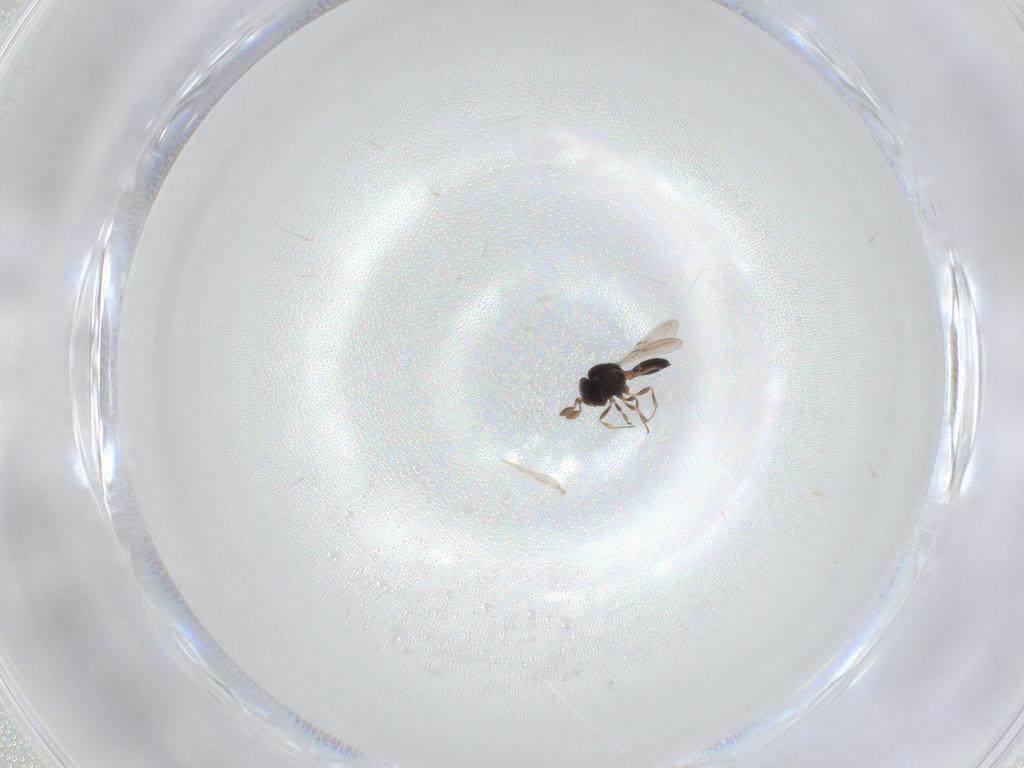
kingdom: Animalia
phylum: Arthropoda
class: Insecta
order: Hymenoptera
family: Scelionidae
